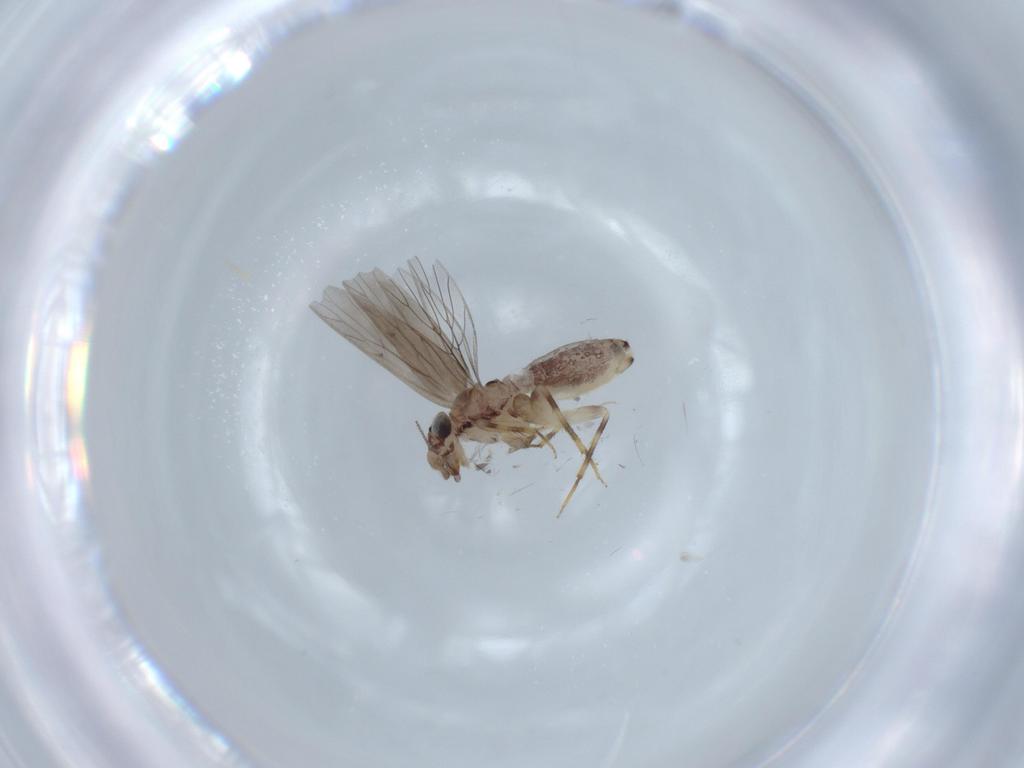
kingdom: Animalia
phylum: Arthropoda
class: Insecta
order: Psocodea
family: Lepidopsocidae
